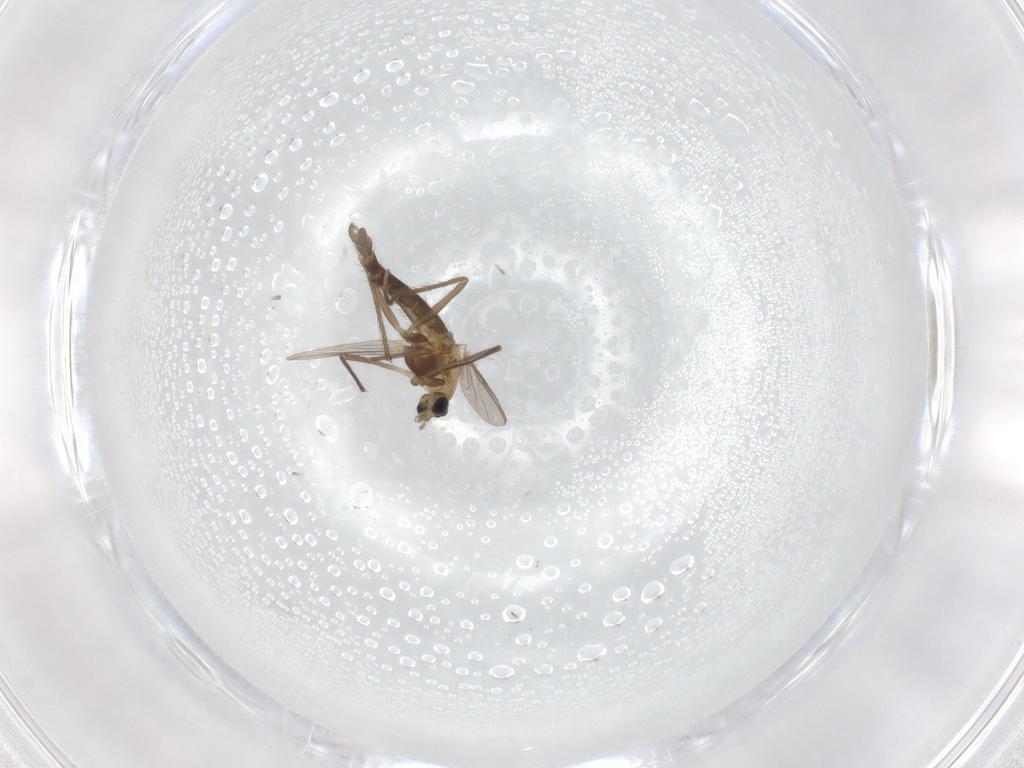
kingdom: Animalia
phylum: Arthropoda
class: Insecta
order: Diptera
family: Chironomidae
